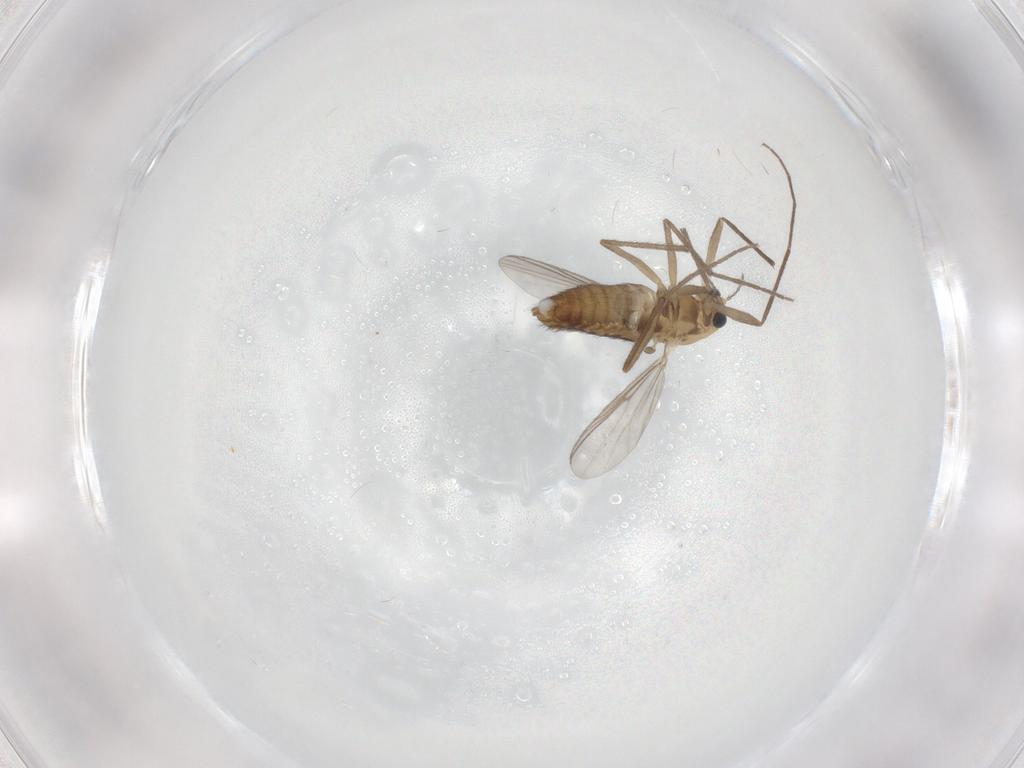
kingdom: Animalia
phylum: Arthropoda
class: Insecta
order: Diptera
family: Chironomidae
